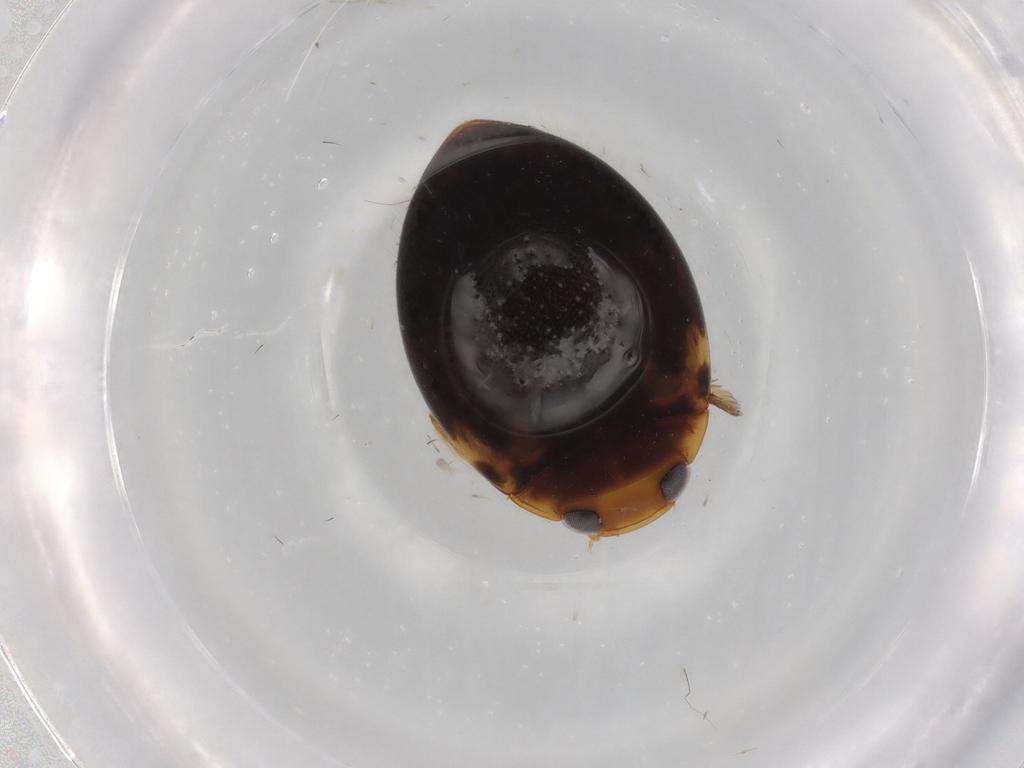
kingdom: Animalia
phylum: Arthropoda
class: Insecta
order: Coleoptera
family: Dytiscidae
